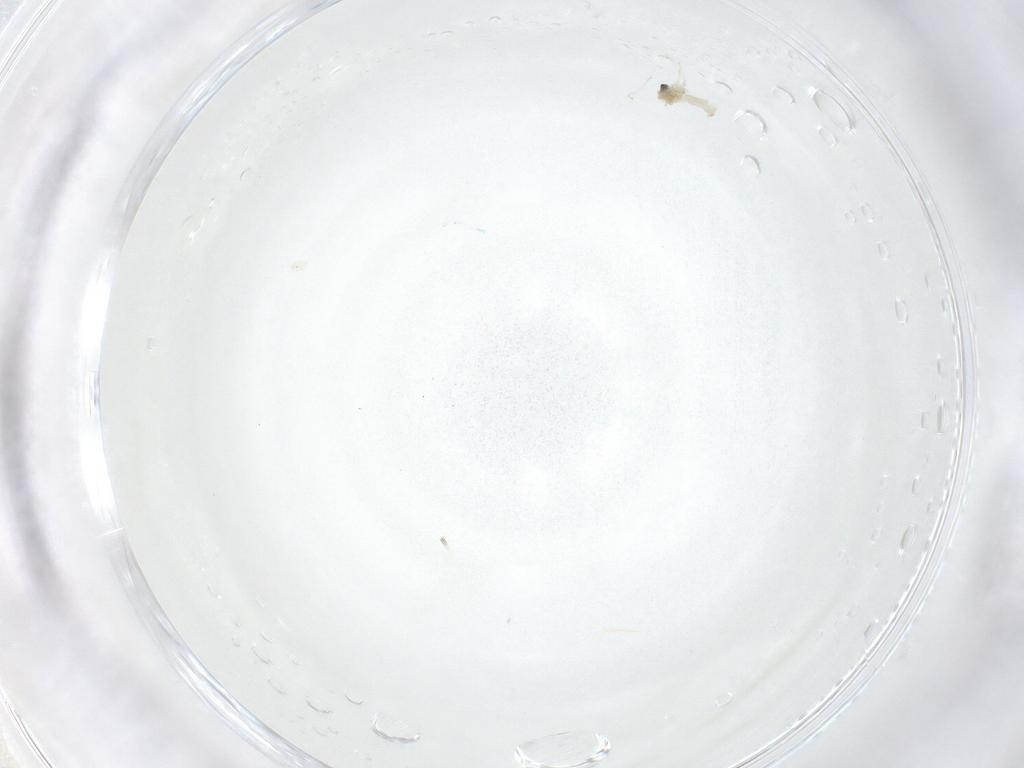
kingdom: Animalia
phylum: Arthropoda
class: Insecta
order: Diptera
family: Cecidomyiidae
